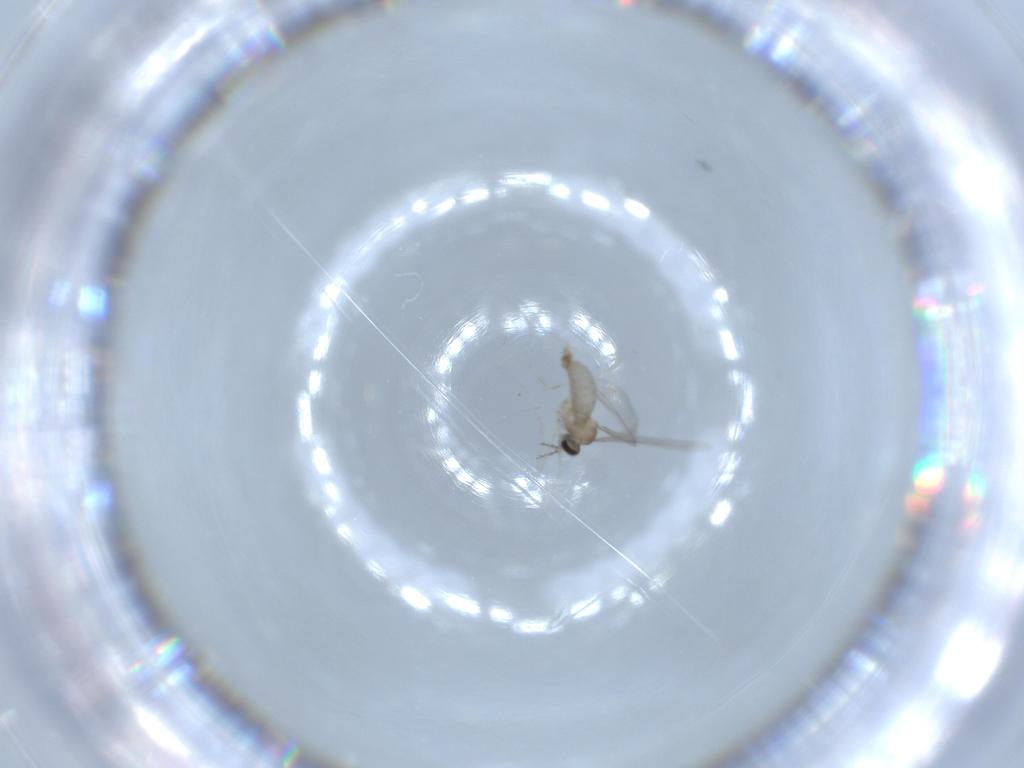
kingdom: Animalia
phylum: Arthropoda
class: Insecta
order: Diptera
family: Cecidomyiidae
